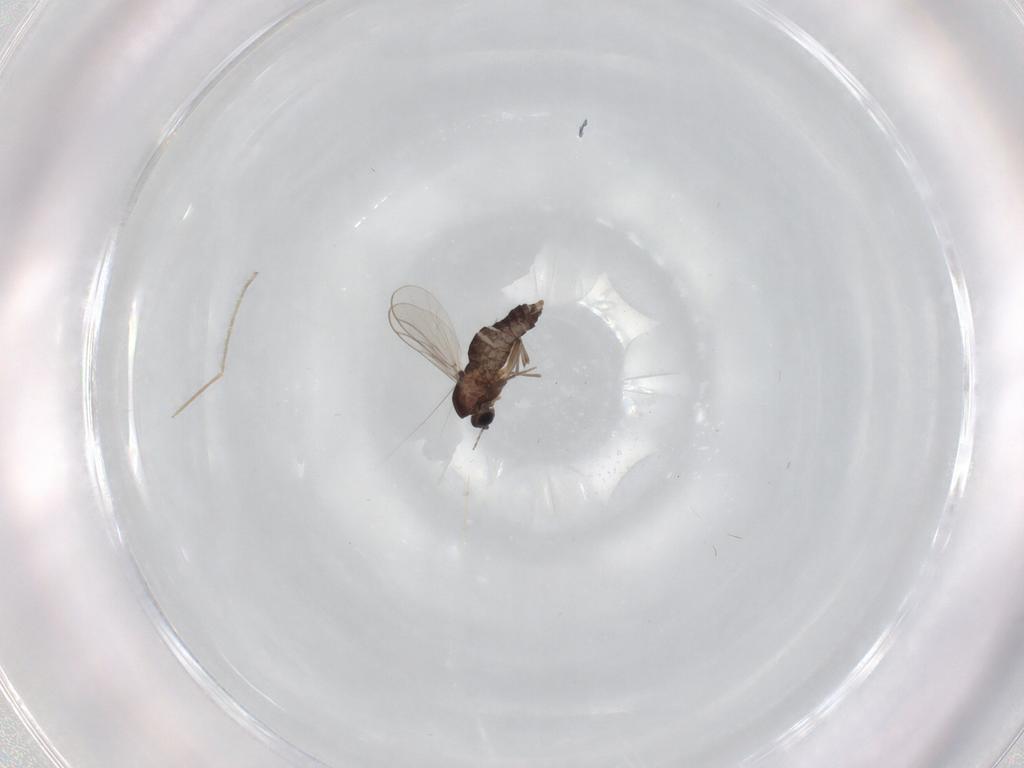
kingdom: Animalia
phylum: Arthropoda
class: Insecta
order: Diptera
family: Chironomidae
